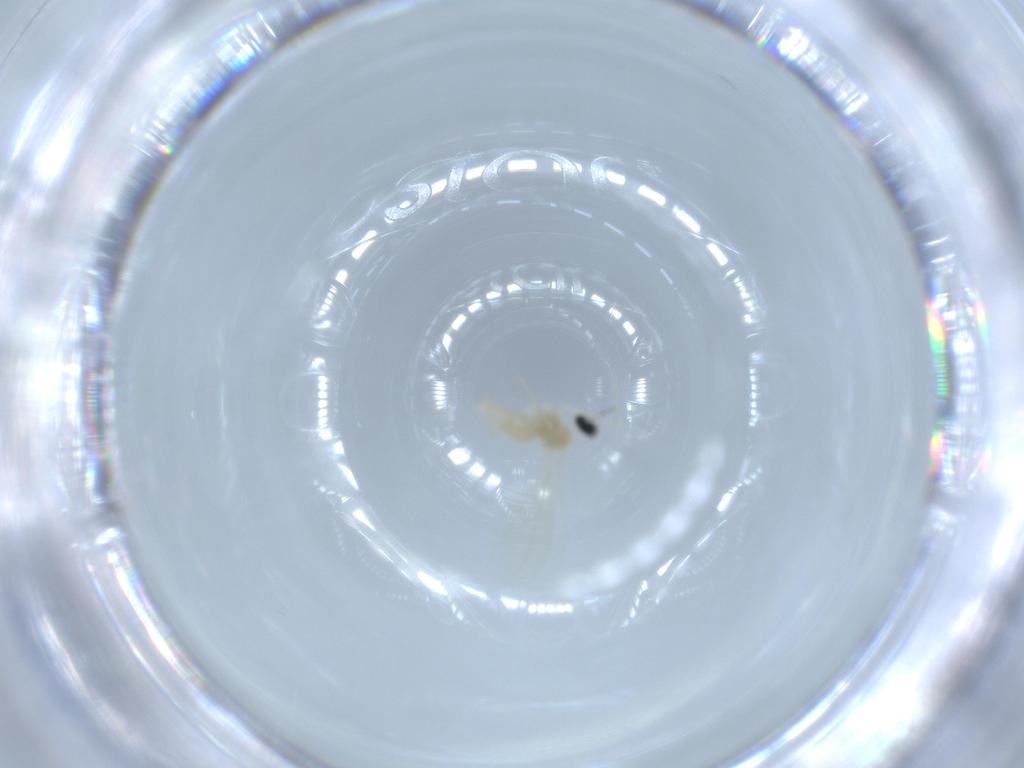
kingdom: Animalia
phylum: Arthropoda
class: Insecta
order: Diptera
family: Cecidomyiidae
